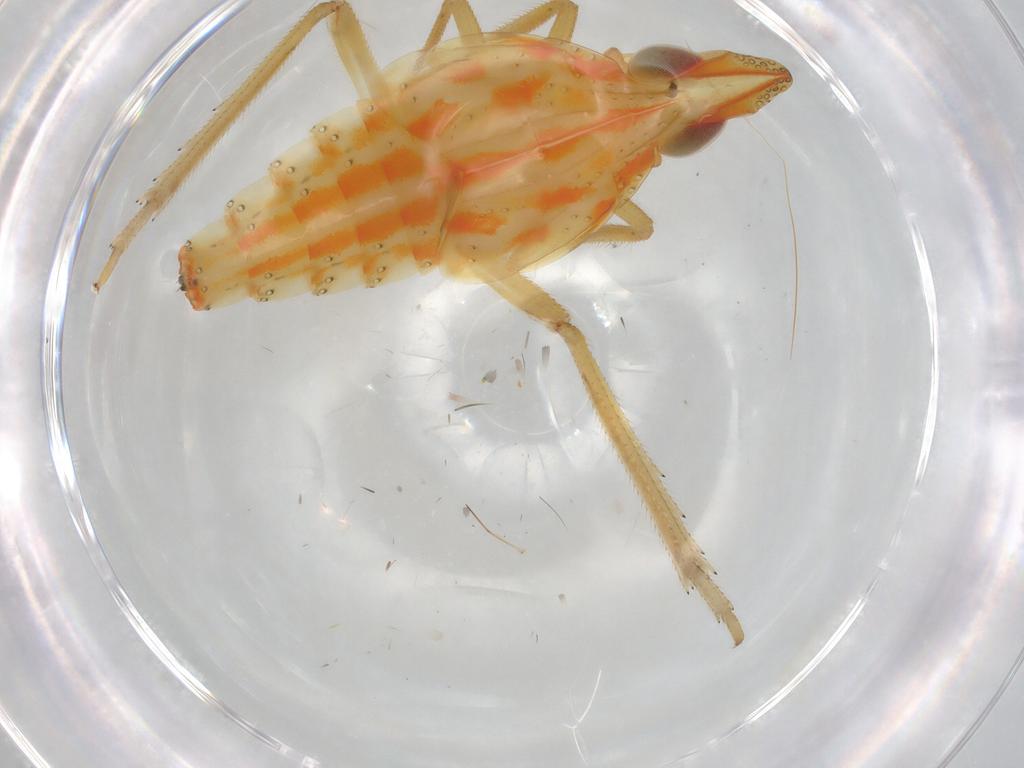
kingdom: Animalia
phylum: Arthropoda
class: Insecta
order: Hemiptera
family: Tropiduchidae
